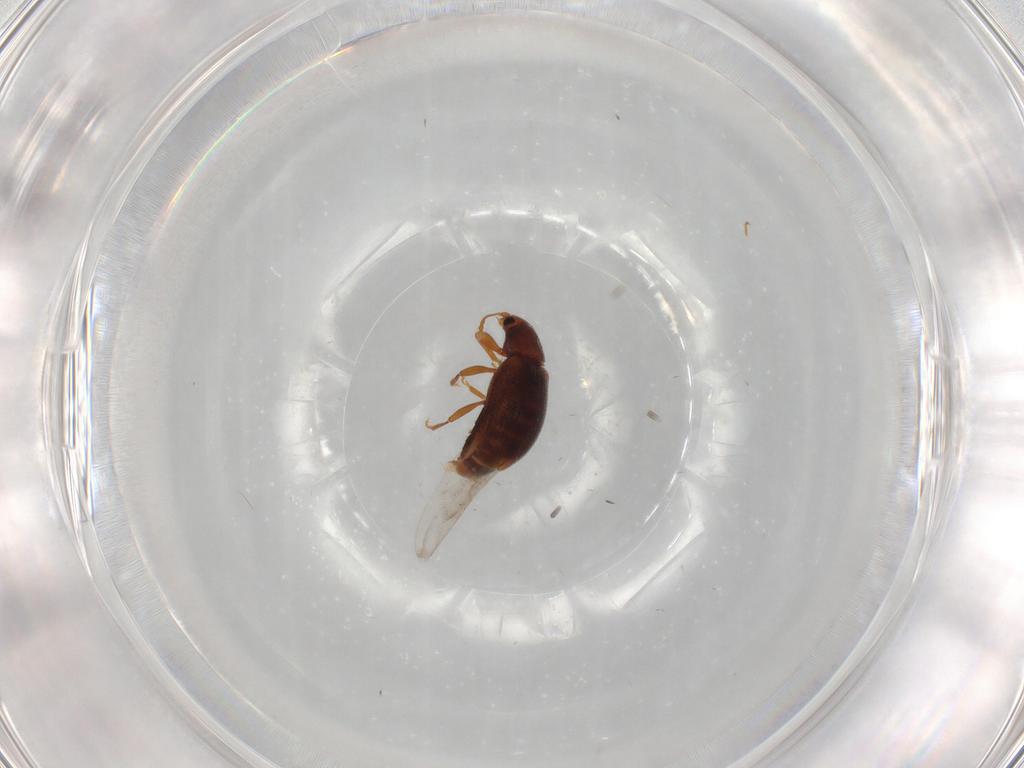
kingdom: Animalia
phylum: Arthropoda
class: Insecta
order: Coleoptera
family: Latridiidae
